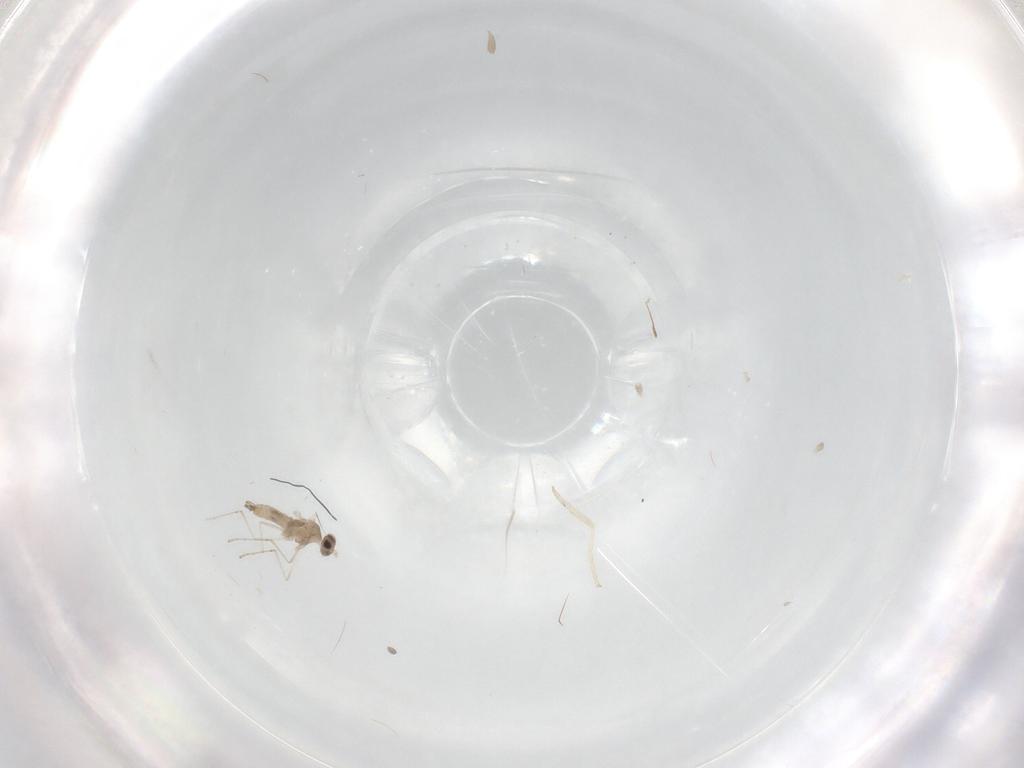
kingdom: Animalia
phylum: Arthropoda
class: Insecta
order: Diptera
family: Cecidomyiidae
